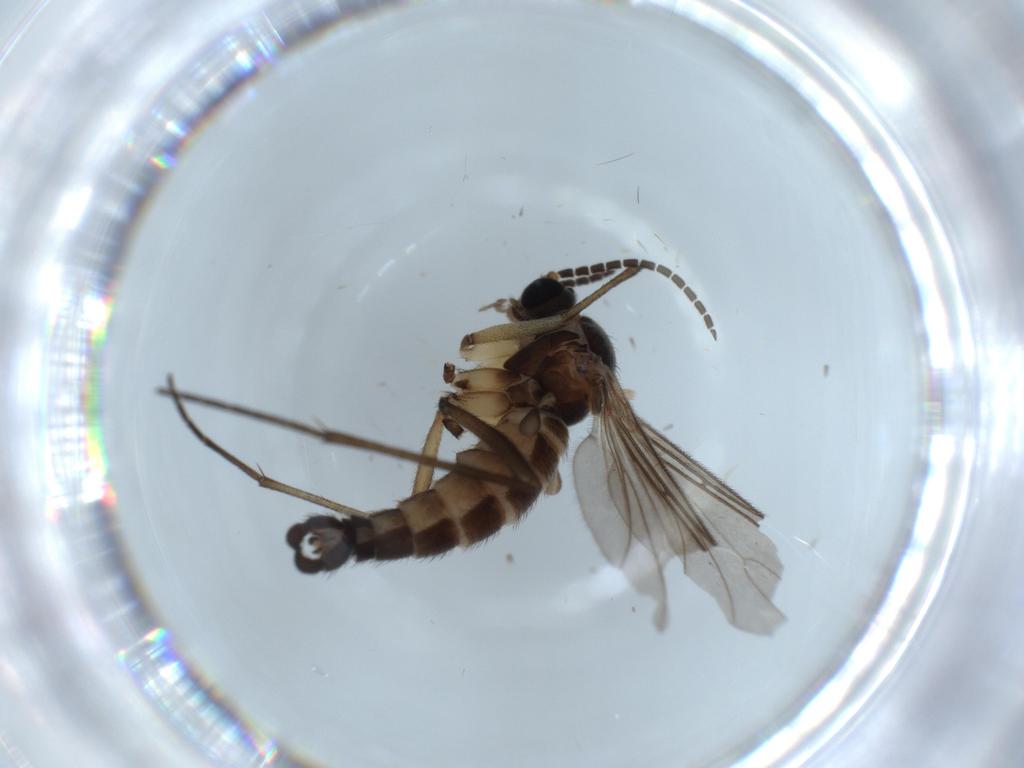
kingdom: Animalia
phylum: Arthropoda
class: Insecta
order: Diptera
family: Sciaridae
